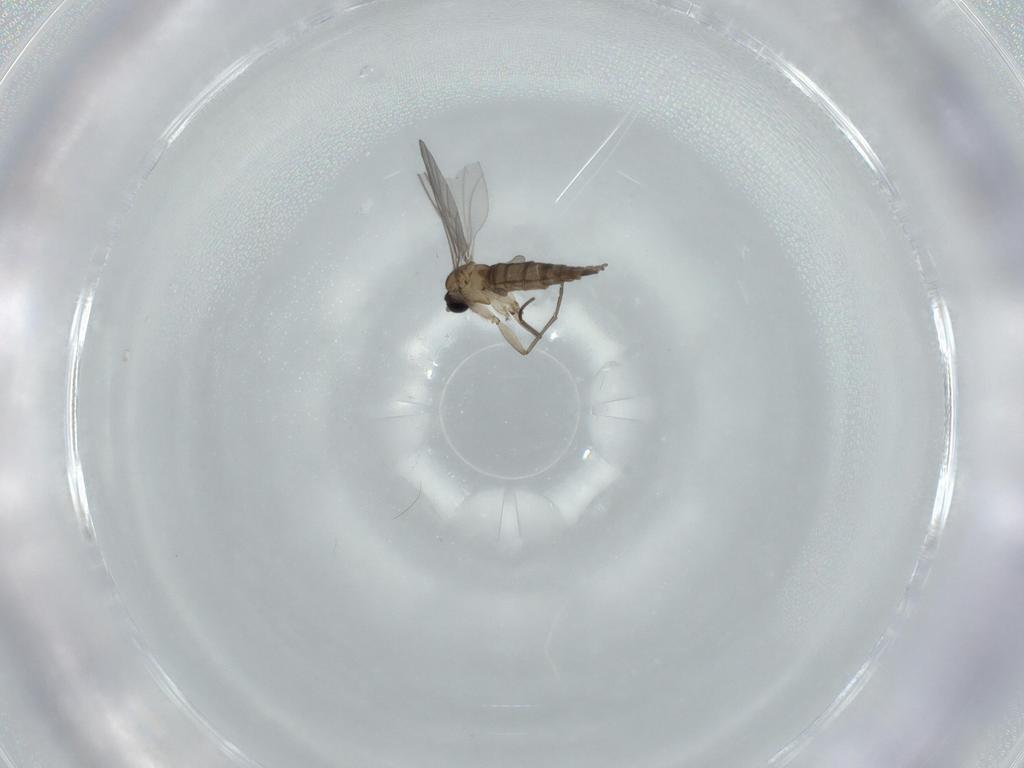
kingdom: Animalia
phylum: Arthropoda
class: Insecta
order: Diptera
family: Sciaridae
